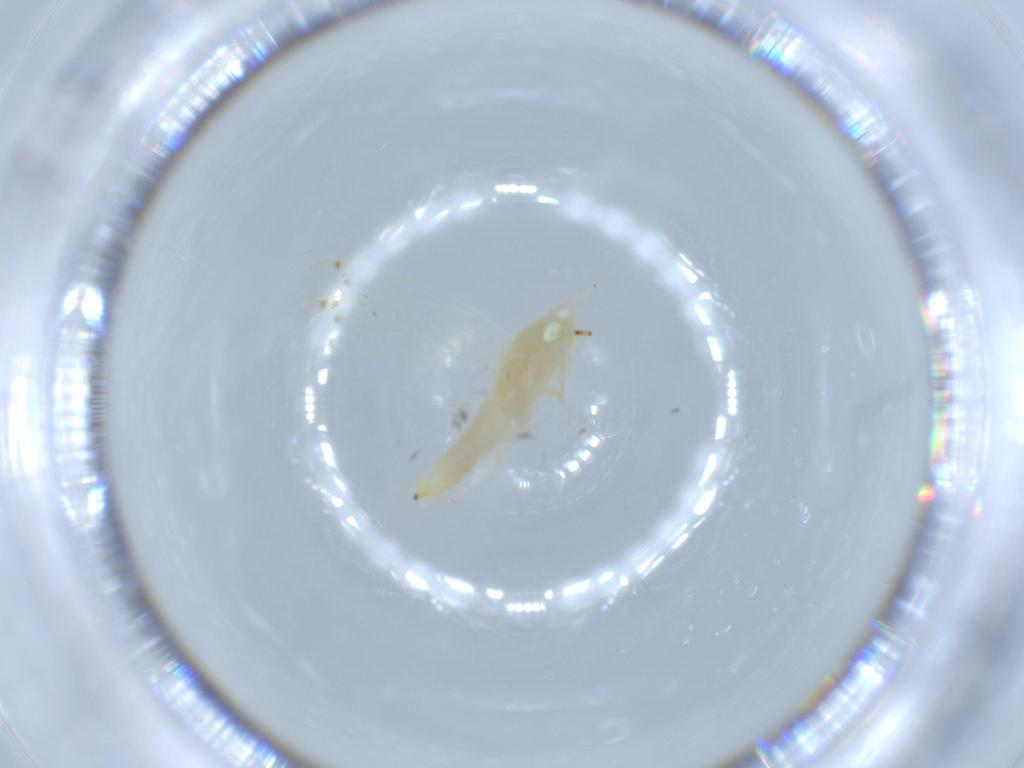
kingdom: Animalia
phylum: Arthropoda
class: Insecta
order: Hemiptera
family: Cicadellidae
